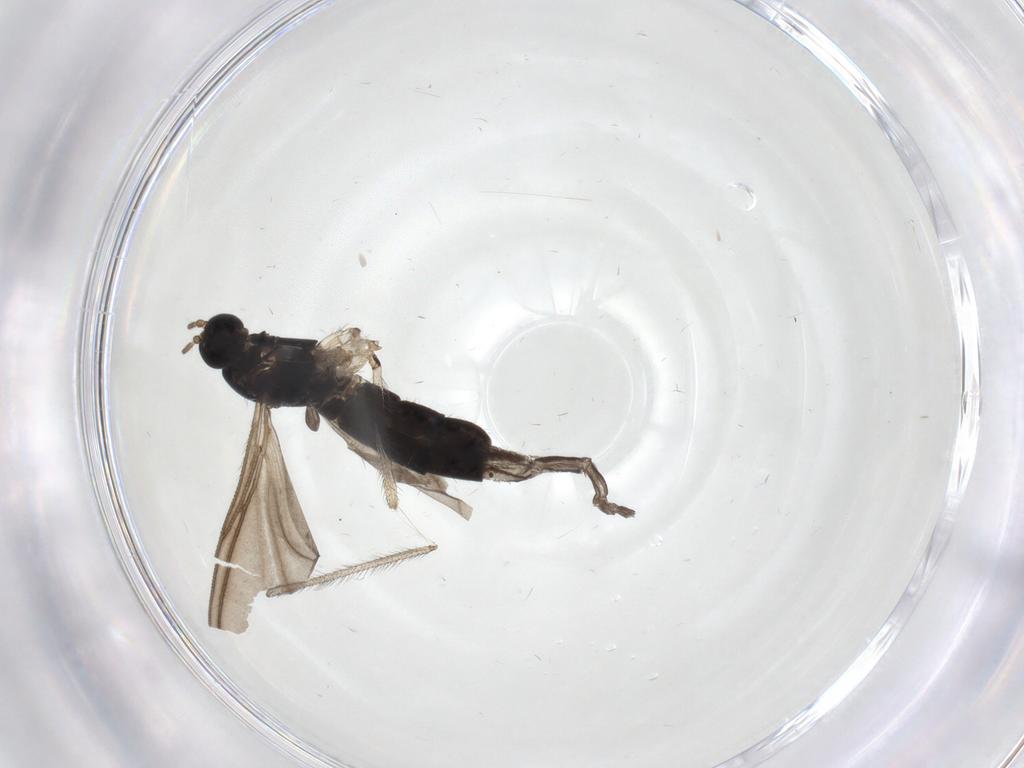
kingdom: Animalia
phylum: Arthropoda
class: Insecta
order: Diptera
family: Sciaridae
